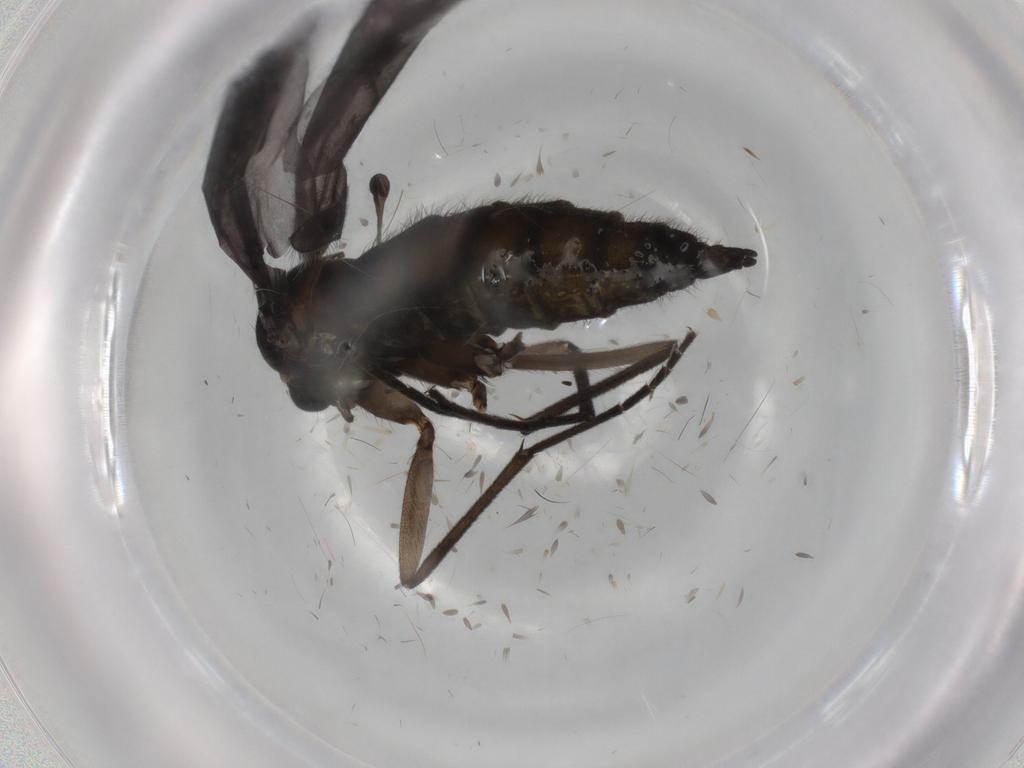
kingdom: Animalia
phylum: Arthropoda
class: Insecta
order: Diptera
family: Sciaridae
